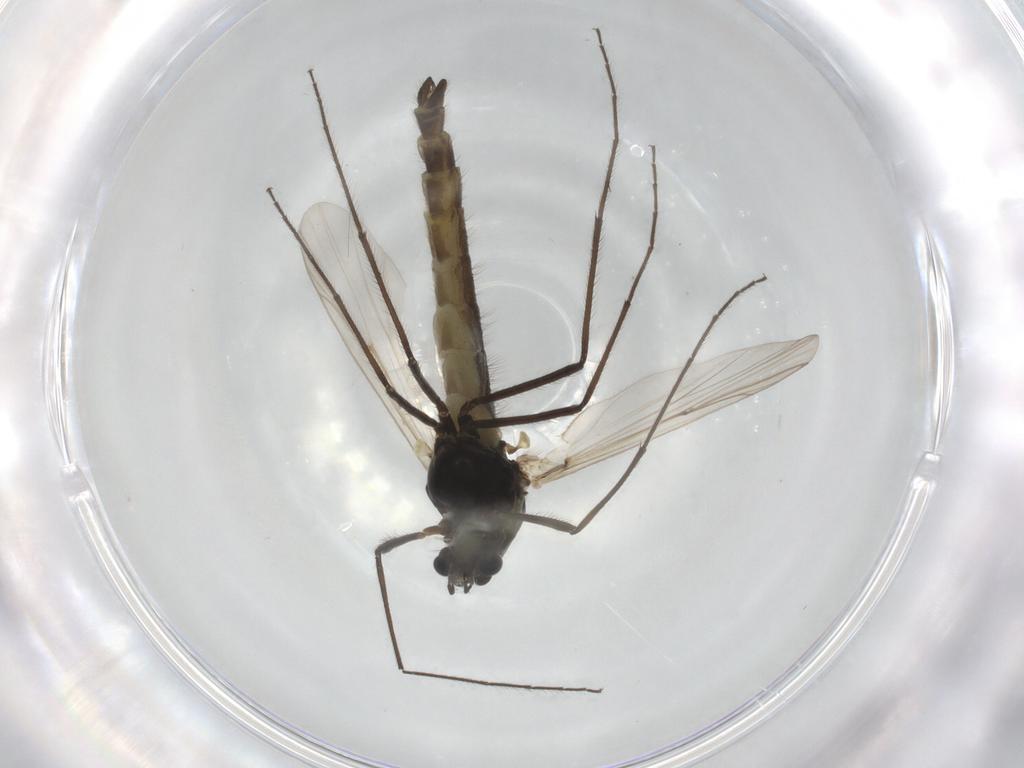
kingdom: Animalia
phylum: Arthropoda
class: Insecta
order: Diptera
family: Chironomidae
